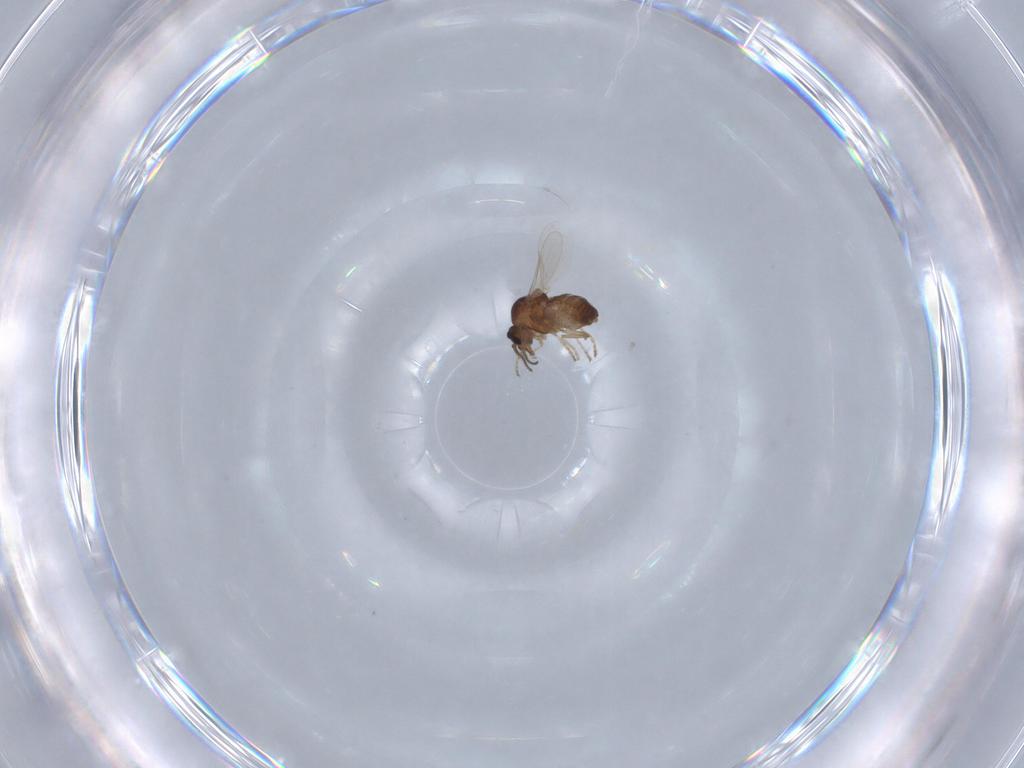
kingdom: Animalia
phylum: Arthropoda
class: Insecta
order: Diptera
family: Ceratopogonidae
